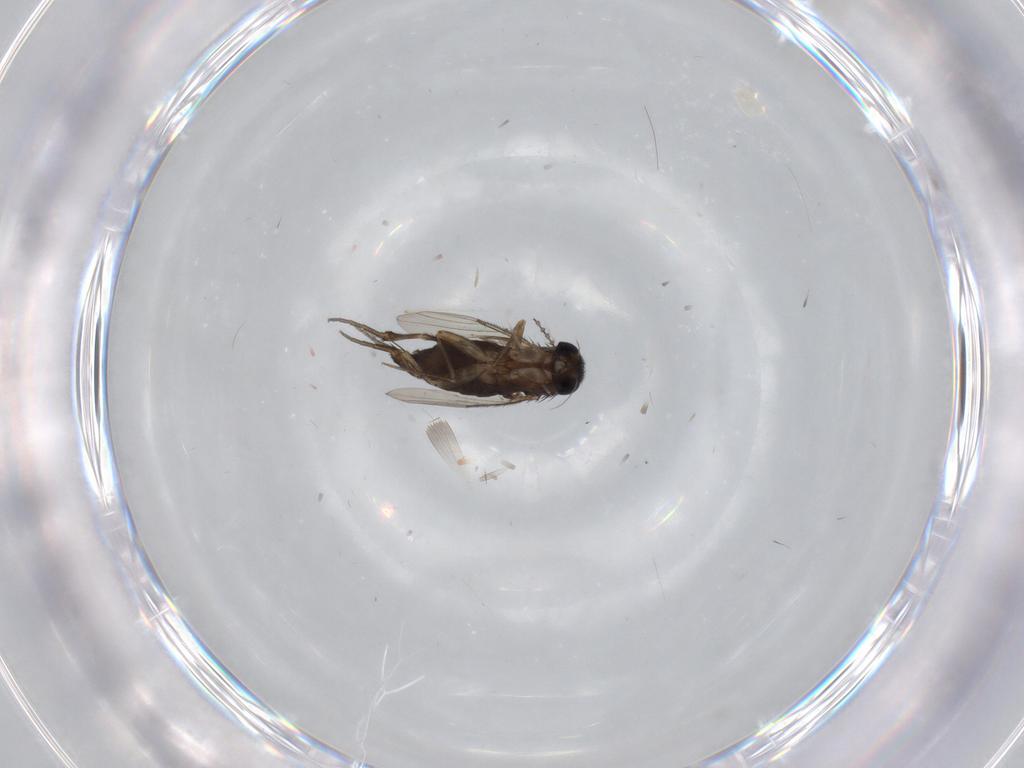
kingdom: Animalia
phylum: Arthropoda
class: Insecta
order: Diptera
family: Phoridae
